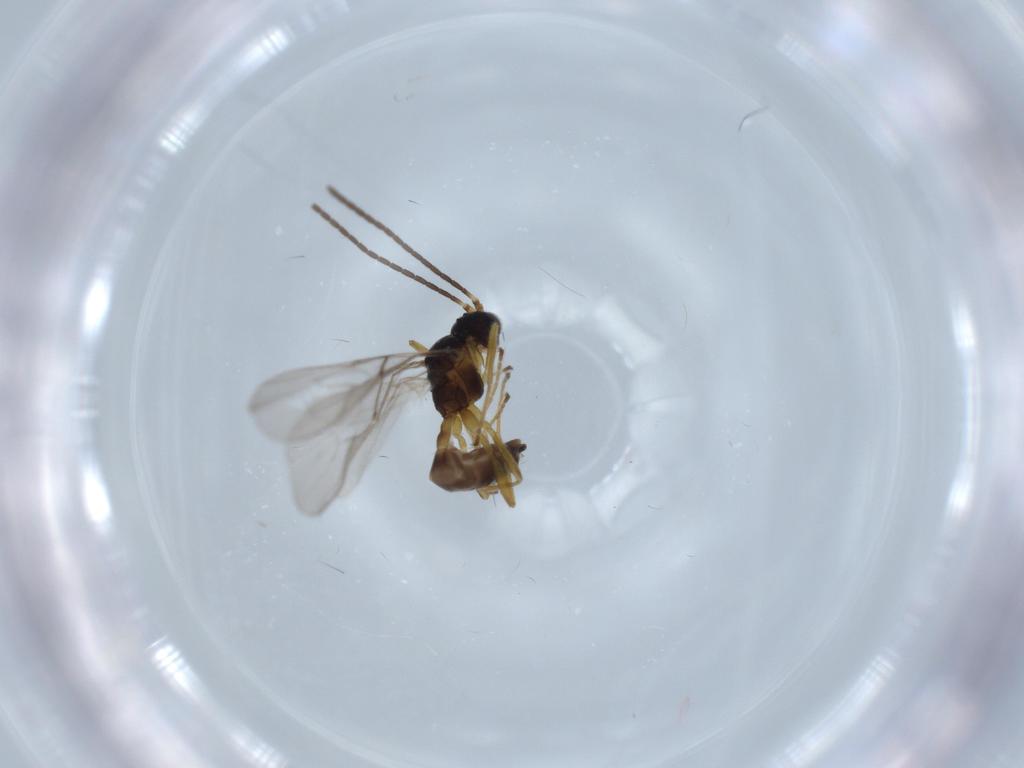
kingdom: Animalia
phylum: Arthropoda
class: Insecta
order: Hymenoptera
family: Braconidae
